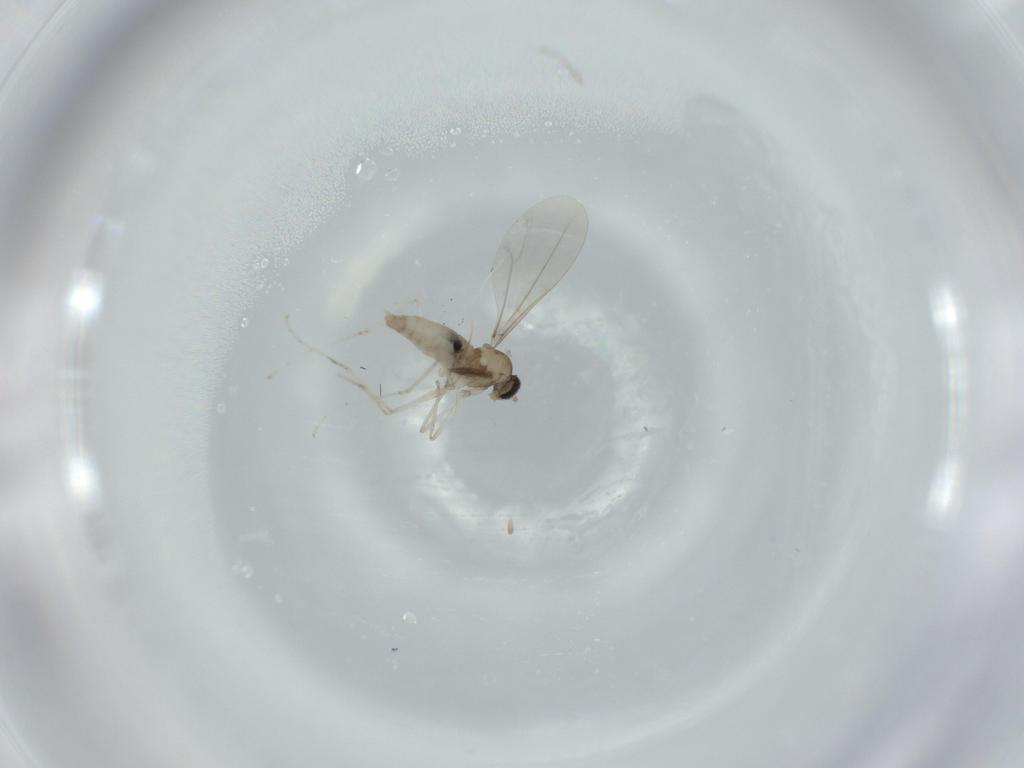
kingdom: Animalia
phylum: Arthropoda
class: Insecta
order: Diptera
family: Cecidomyiidae
